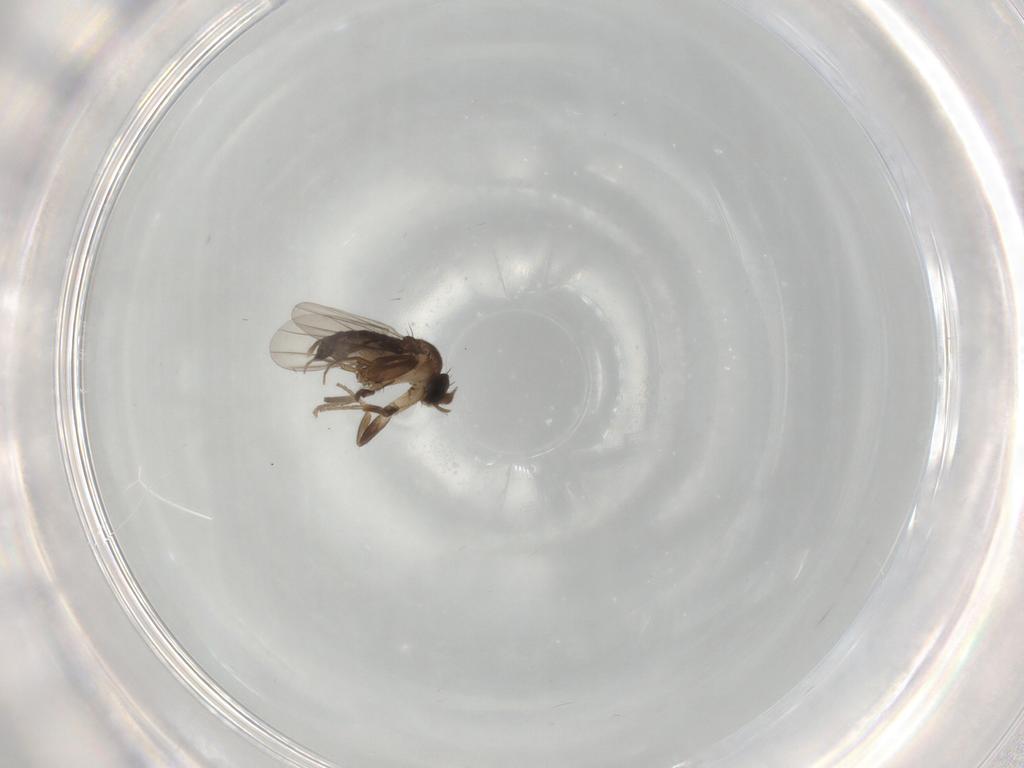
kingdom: Animalia
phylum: Arthropoda
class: Insecta
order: Diptera
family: Phoridae
